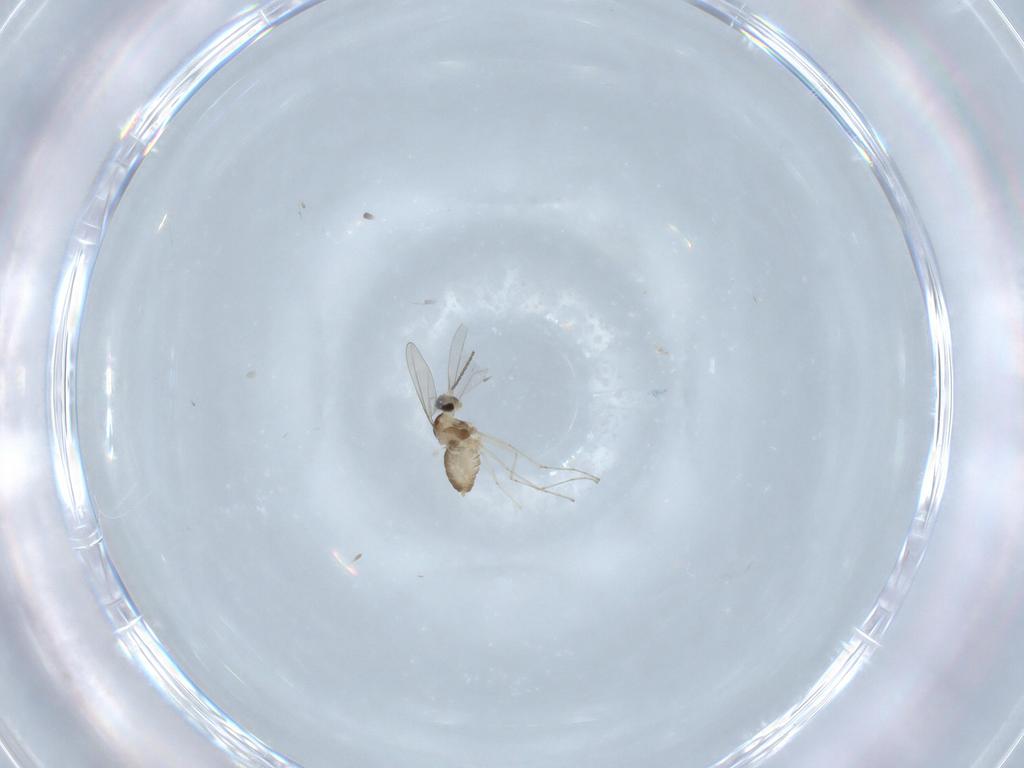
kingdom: Animalia
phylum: Arthropoda
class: Insecta
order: Diptera
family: Cecidomyiidae
